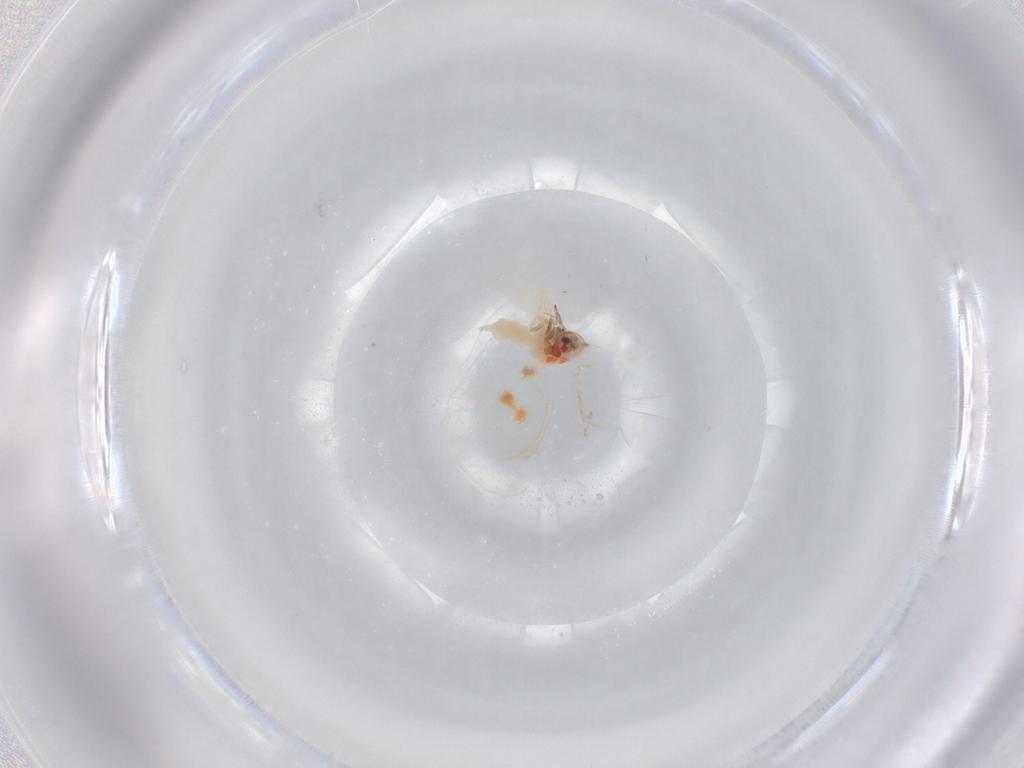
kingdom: Animalia
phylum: Arthropoda
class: Insecta
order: Hemiptera
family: Aleyrodidae
